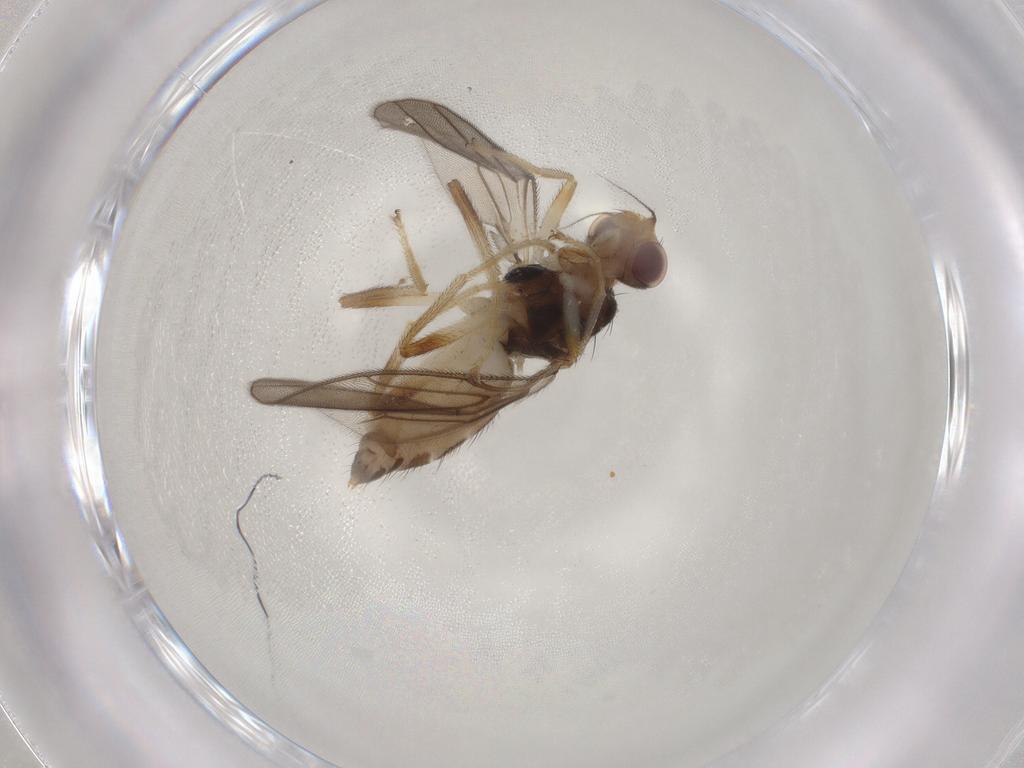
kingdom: Animalia
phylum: Arthropoda
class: Insecta
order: Diptera
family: Chloropidae
